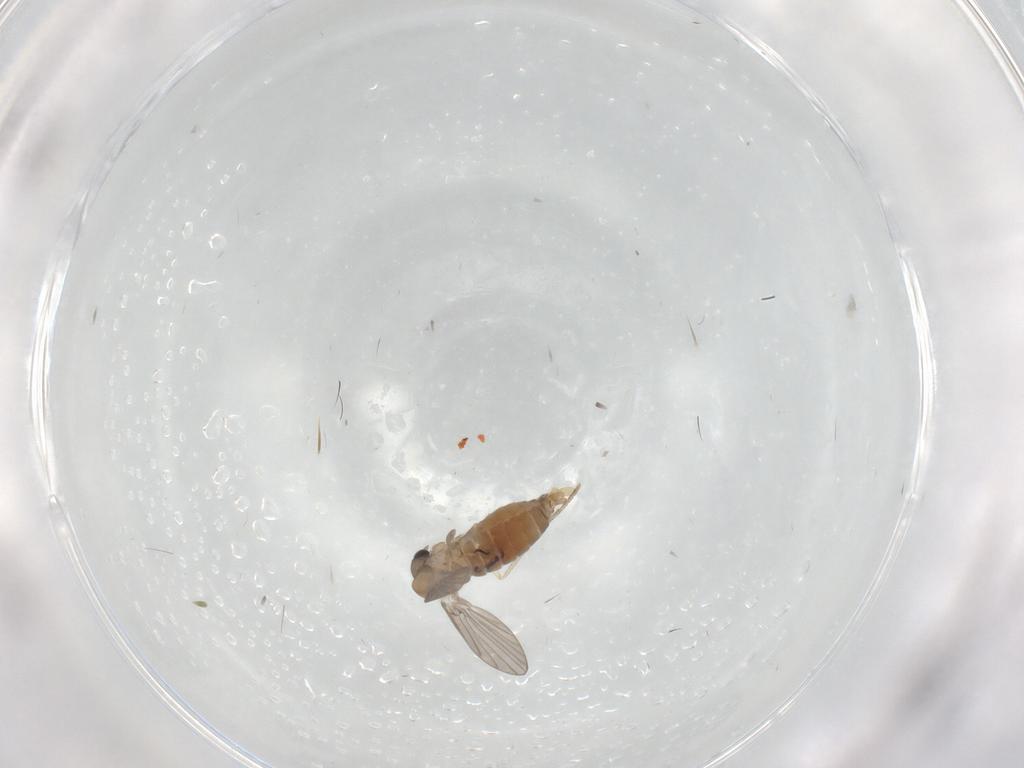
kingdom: Animalia
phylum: Arthropoda
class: Insecta
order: Diptera
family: Phoridae
